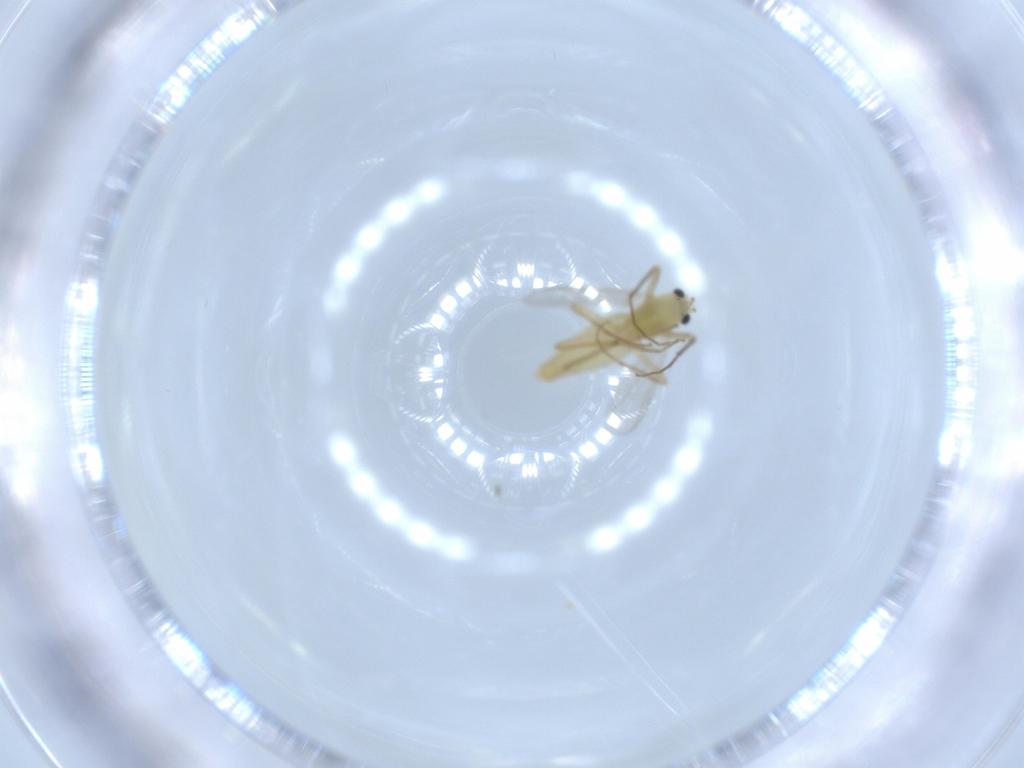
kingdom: Animalia
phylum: Arthropoda
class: Insecta
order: Diptera
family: Chironomidae
